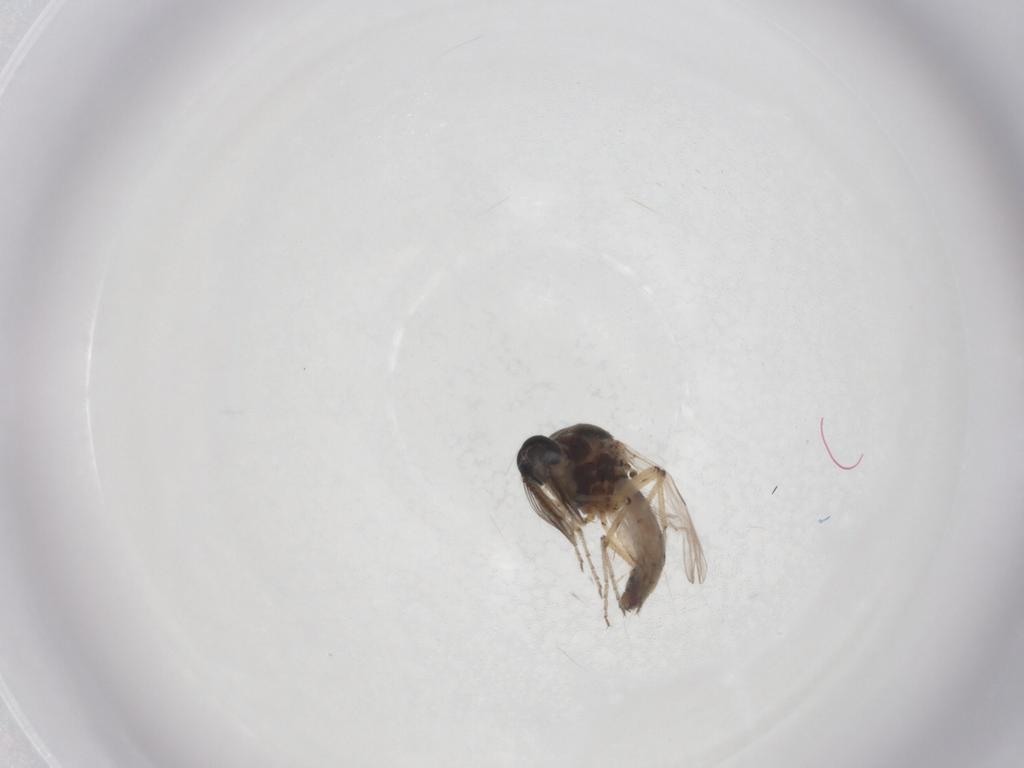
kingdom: Animalia
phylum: Arthropoda
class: Insecta
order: Diptera
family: Ceratopogonidae
